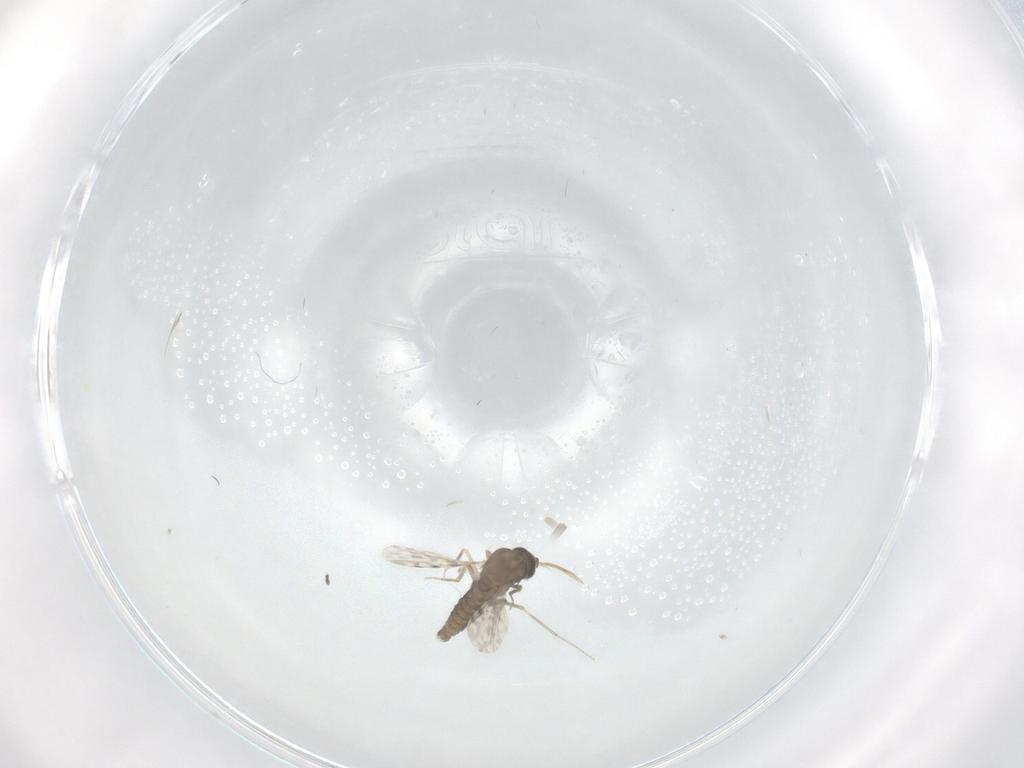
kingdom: Animalia
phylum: Arthropoda
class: Insecta
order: Diptera
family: Ceratopogonidae
